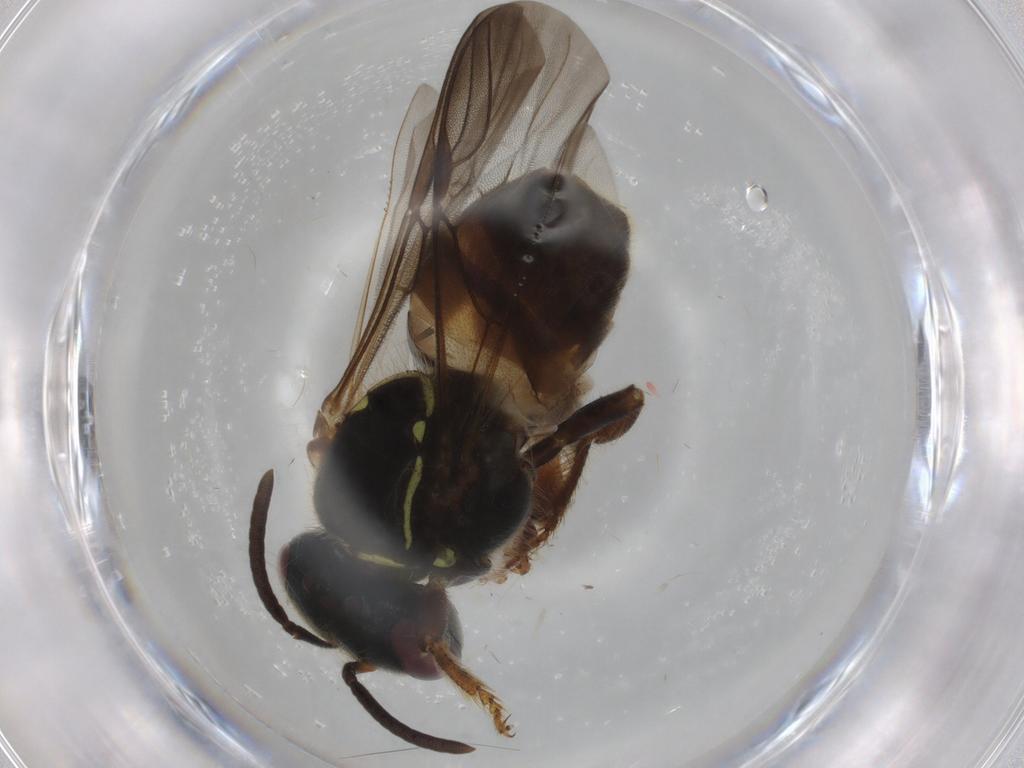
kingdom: Animalia
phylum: Arthropoda
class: Insecta
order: Hymenoptera
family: Apidae
